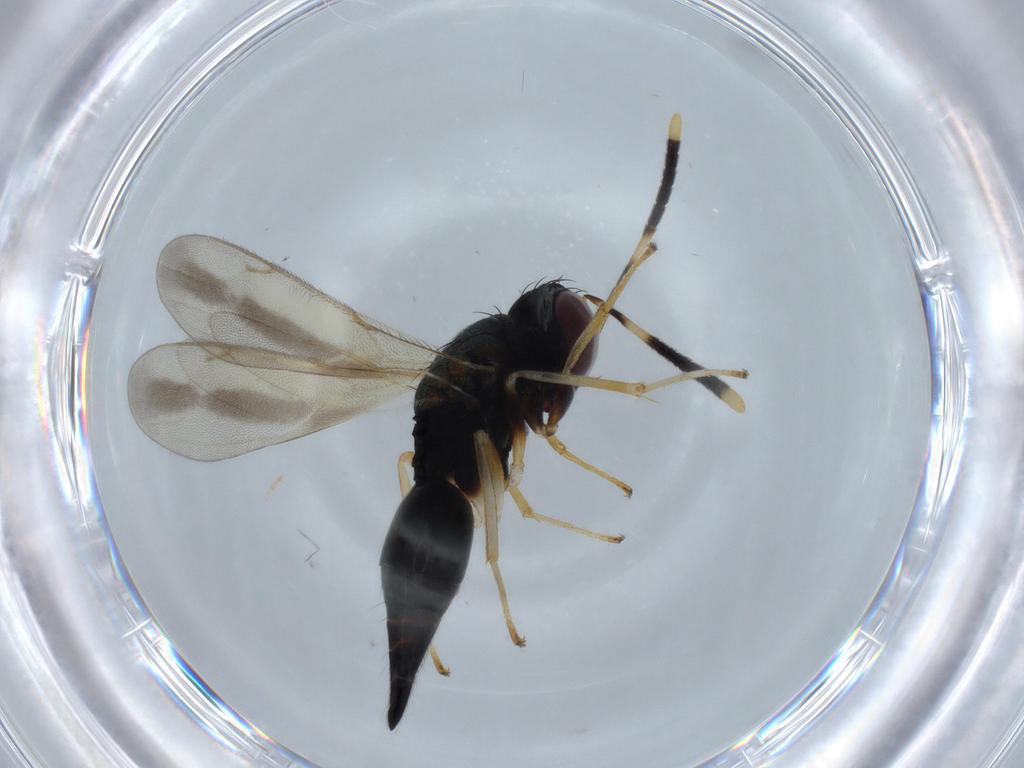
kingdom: Animalia
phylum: Arthropoda
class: Insecta
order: Hymenoptera
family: Diparidae
